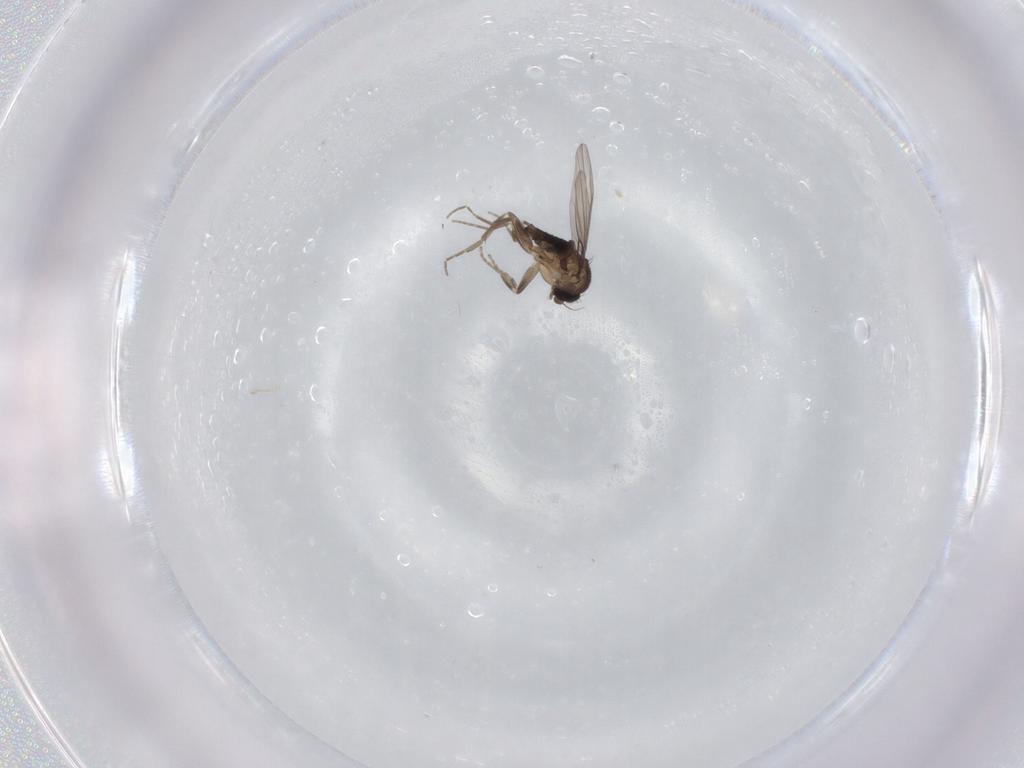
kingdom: Animalia
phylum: Arthropoda
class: Insecta
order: Diptera
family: Phoridae
